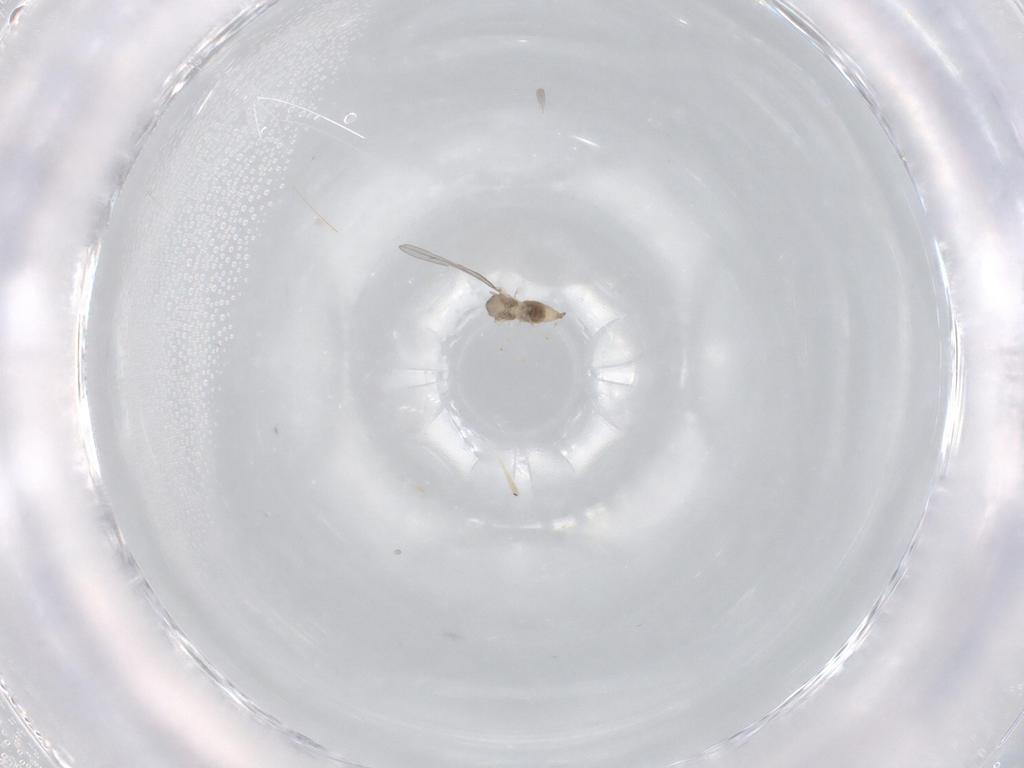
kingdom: Animalia
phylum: Arthropoda
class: Insecta
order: Diptera
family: Cecidomyiidae
